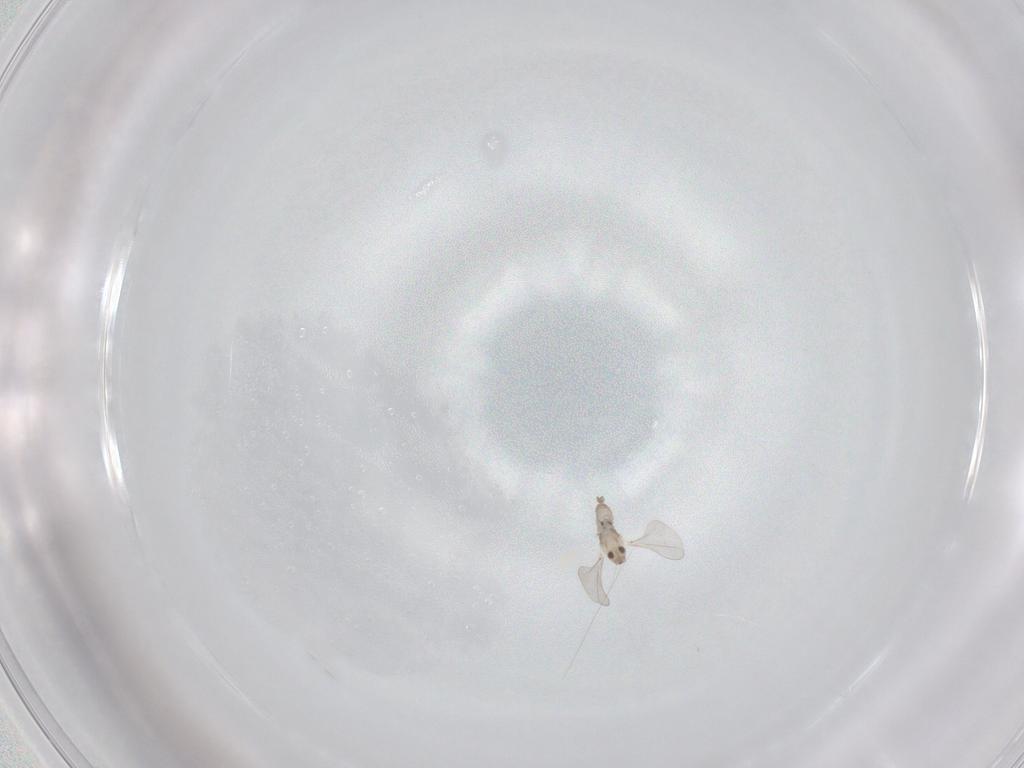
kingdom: Animalia
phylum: Arthropoda
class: Insecta
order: Diptera
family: Sciaridae
